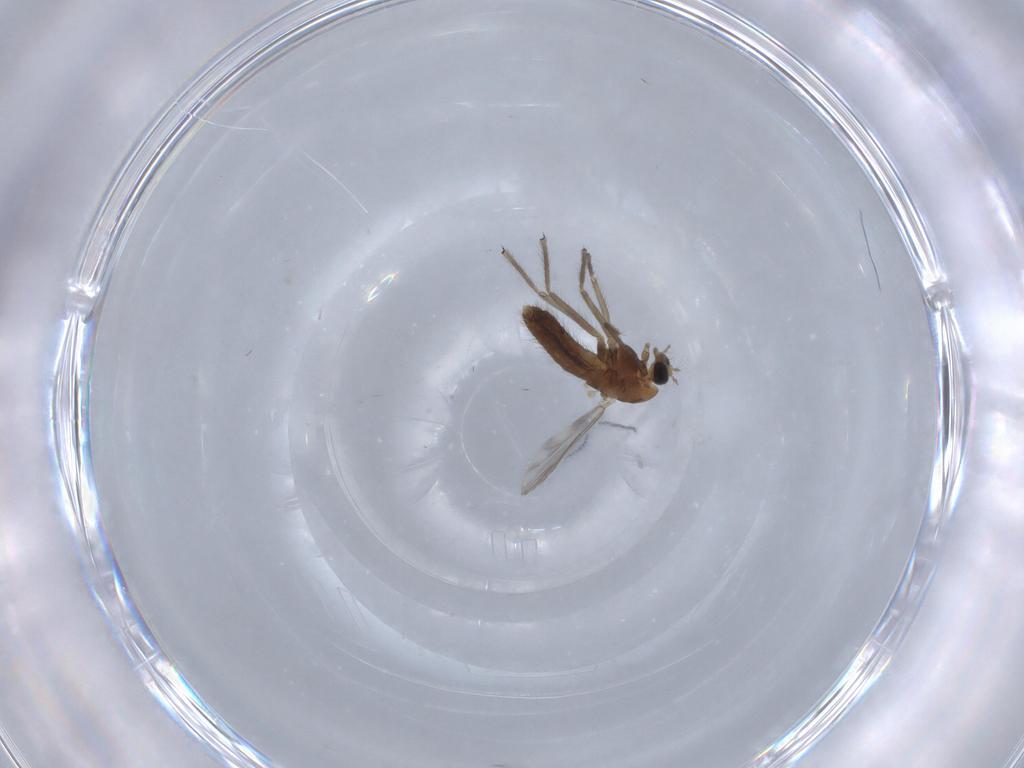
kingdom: Animalia
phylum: Arthropoda
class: Insecta
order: Diptera
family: Chironomidae
